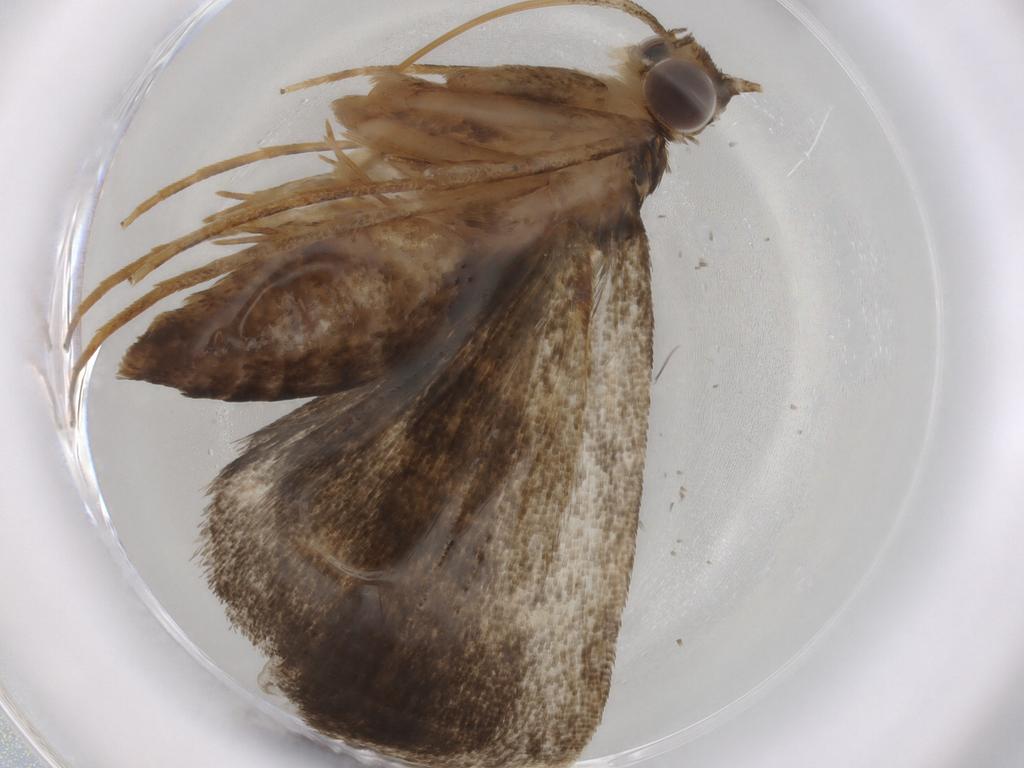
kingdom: Animalia
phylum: Arthropoda
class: Insecta
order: Lepidoptera
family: Crambidae
